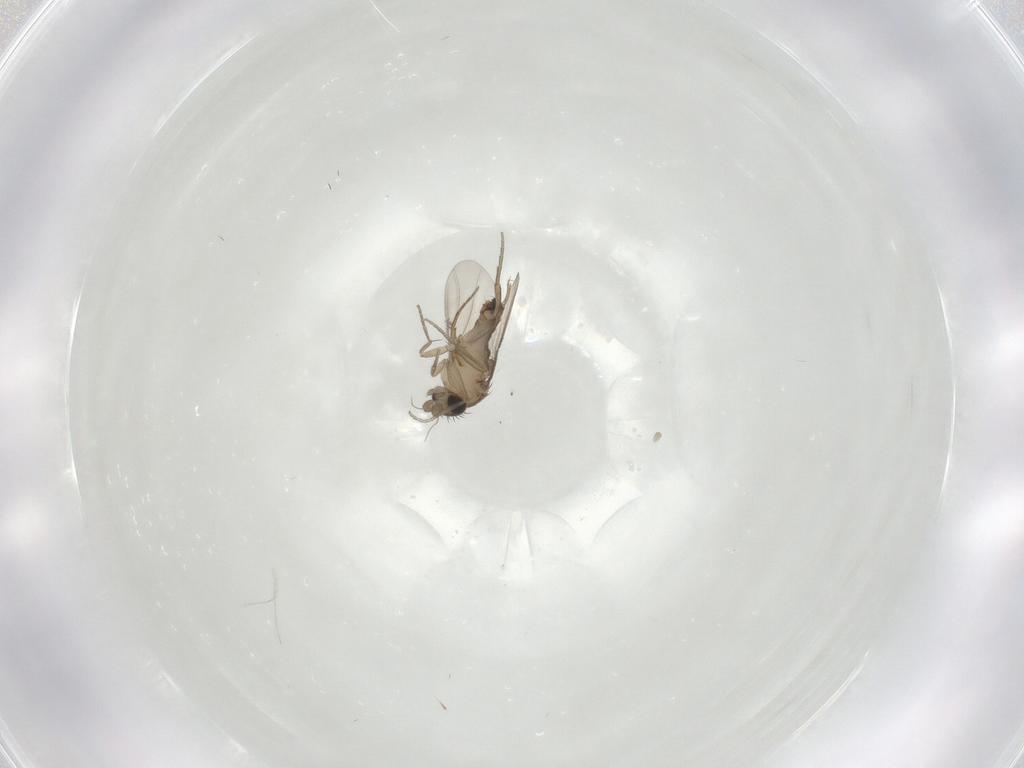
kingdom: Animalia
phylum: Arthropoda
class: Insecta
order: Diptera
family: Phoridae
